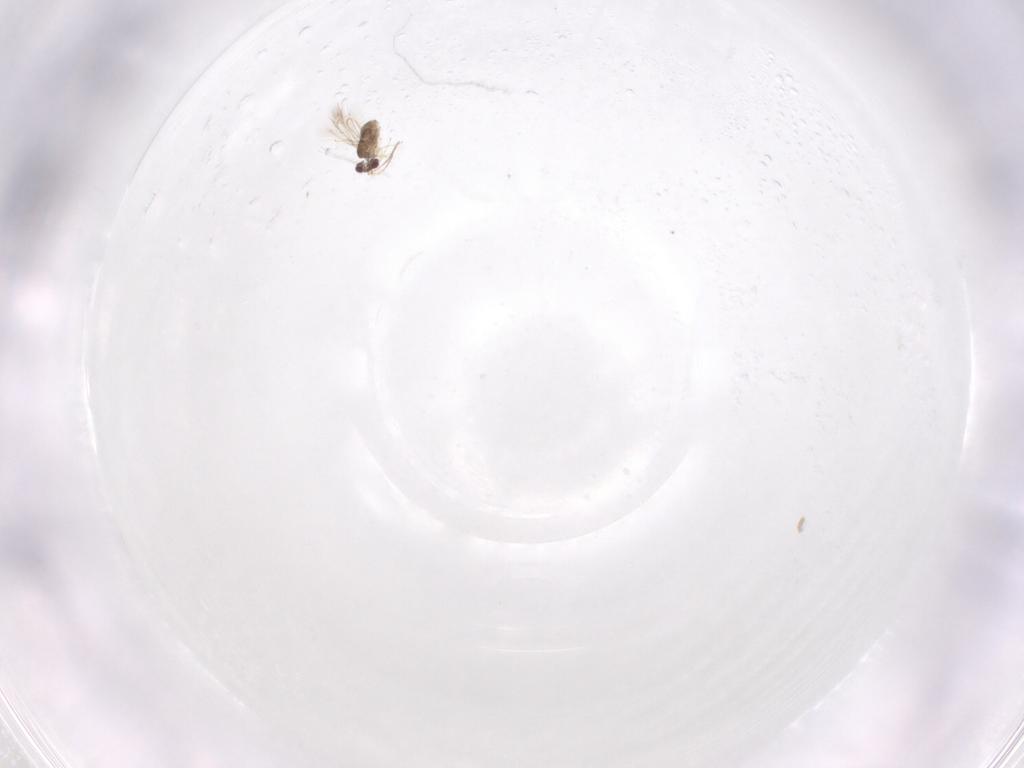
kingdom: Animalia
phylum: Arthropoda
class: Insecta
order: Hymenoptera
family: Mymaridae
